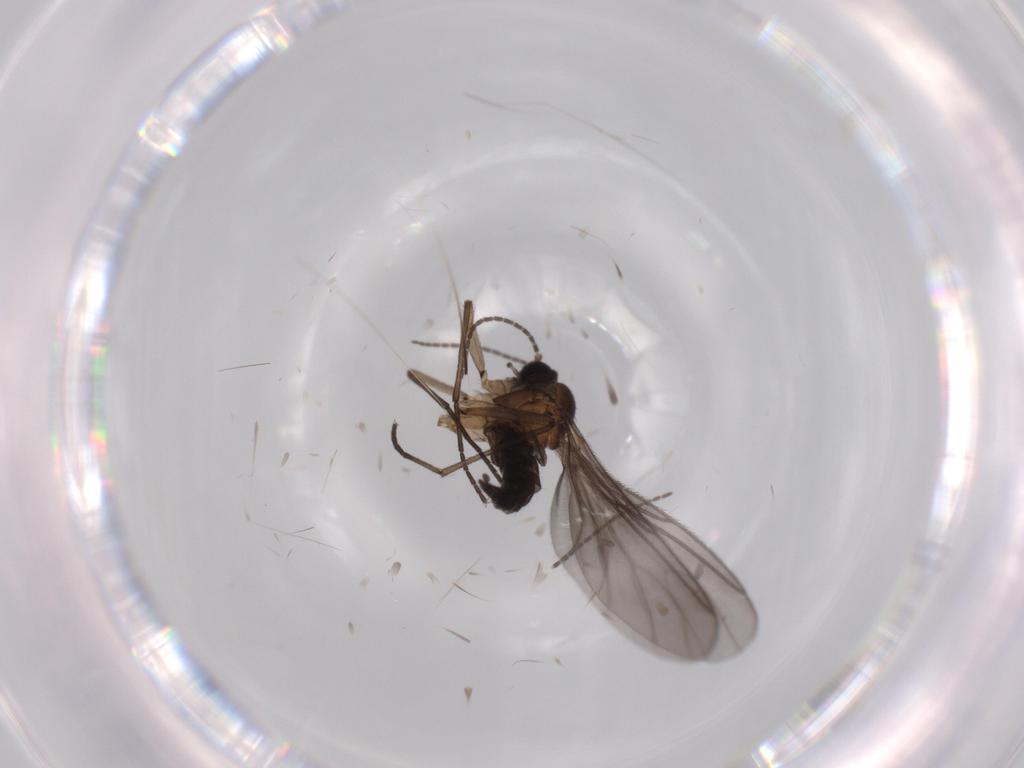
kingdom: Animalia
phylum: Arthropoda
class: Insecta
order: Diptera
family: Sciaridae
